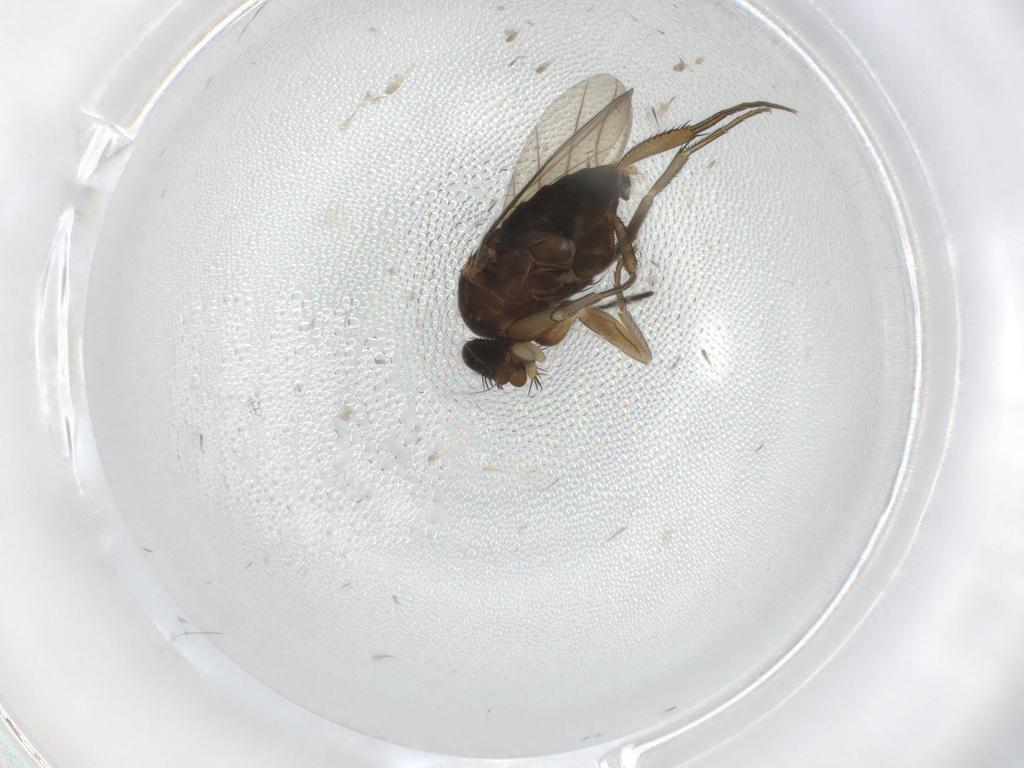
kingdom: Animalia
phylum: Arthropoda
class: Insecta
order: Diptera
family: Phoridae
